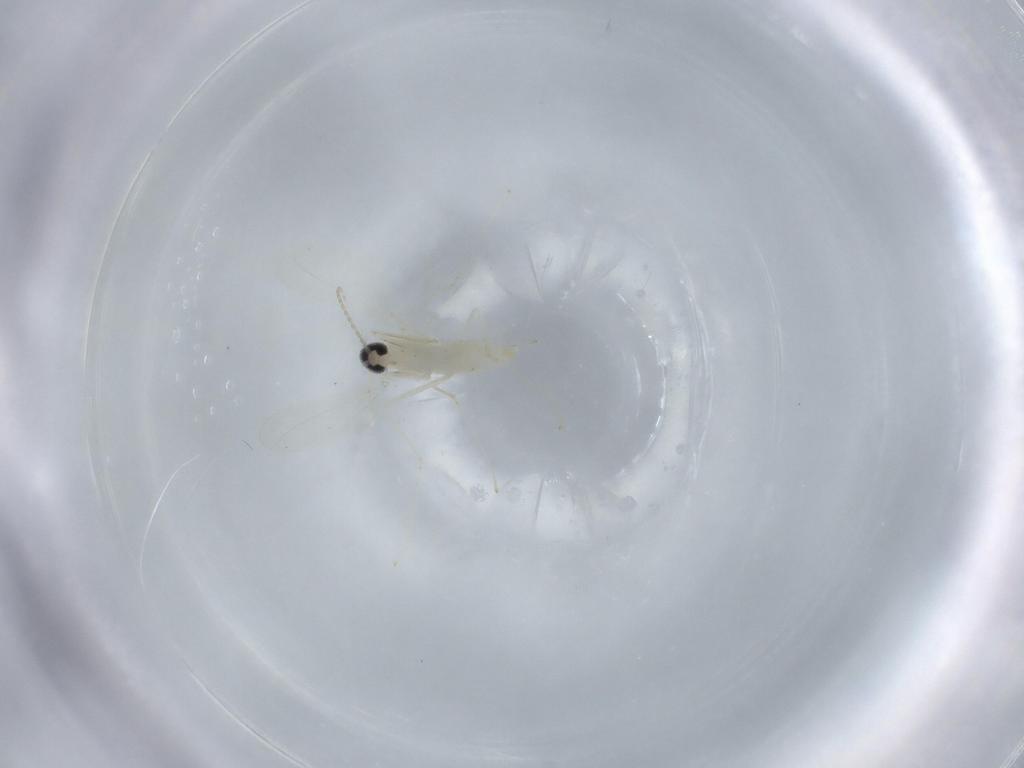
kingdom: Animalia
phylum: Arthropoda
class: Insecta
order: Diptera
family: Cecidomyiidae
